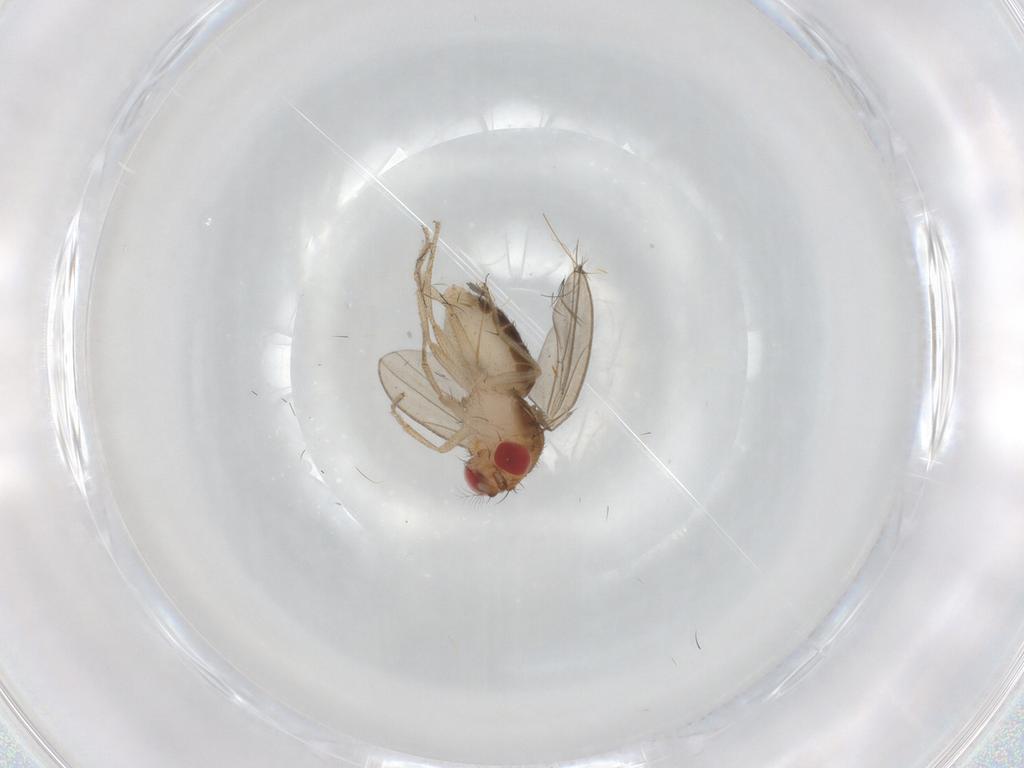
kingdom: Animalia
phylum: Arthropoda
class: Insecta
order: Diptera
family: Drosophilidae
